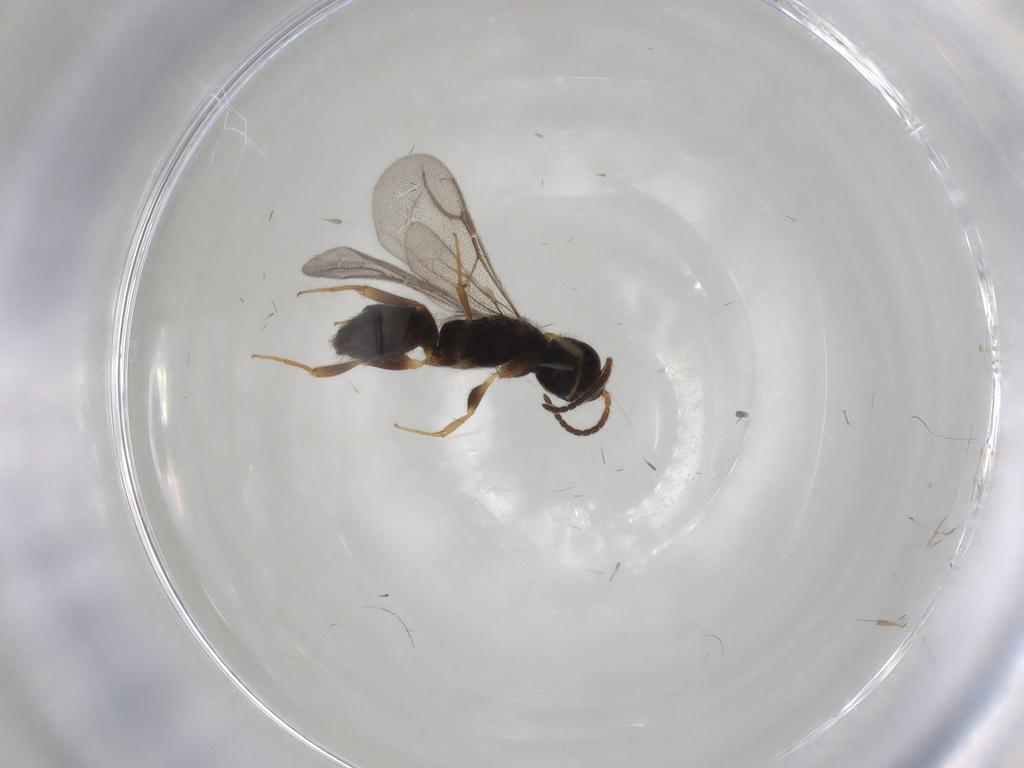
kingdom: Animalia
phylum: Arthropoda
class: Insecta
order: Hymenoptera
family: Bethylidae
